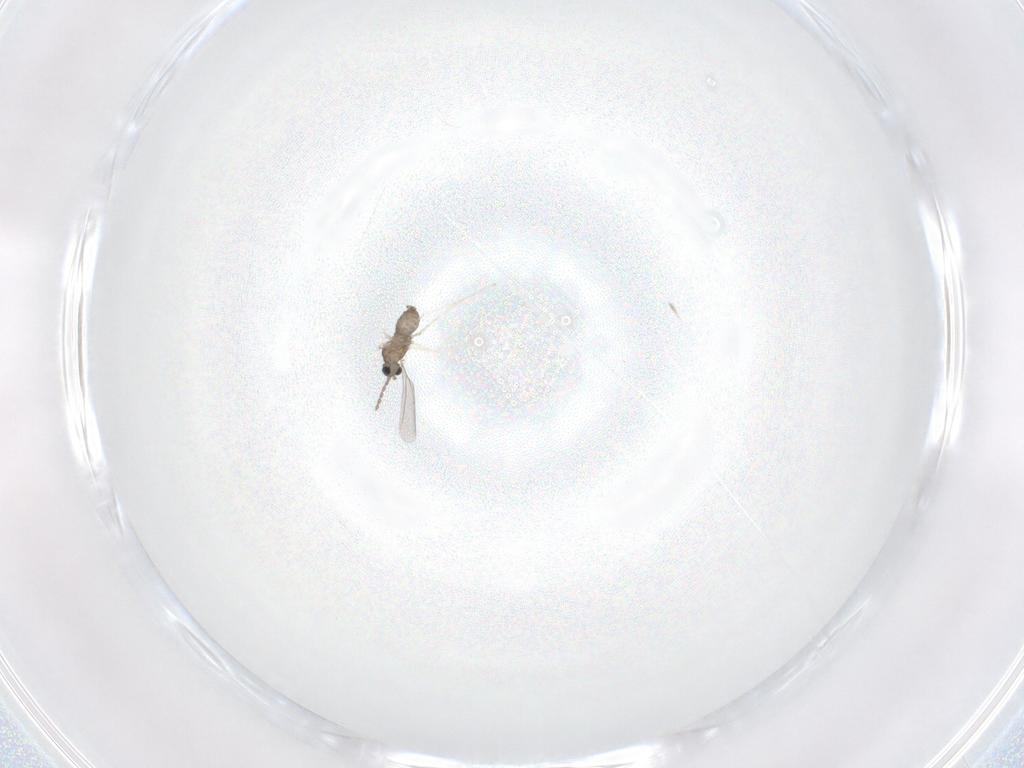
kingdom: Animalia
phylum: Arthropoda
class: Insecta
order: Diptera
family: Cecidomyiidae
